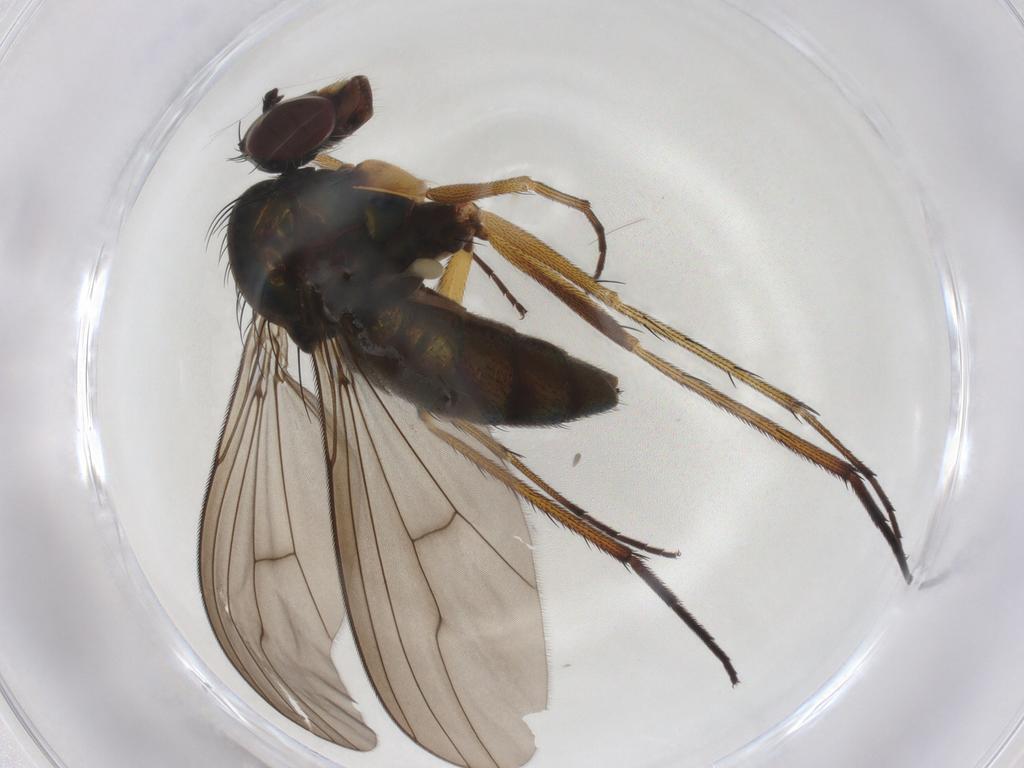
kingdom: Animalia
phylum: Arthropoda
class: Insecta
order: Diptera
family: Dolichopodidae
